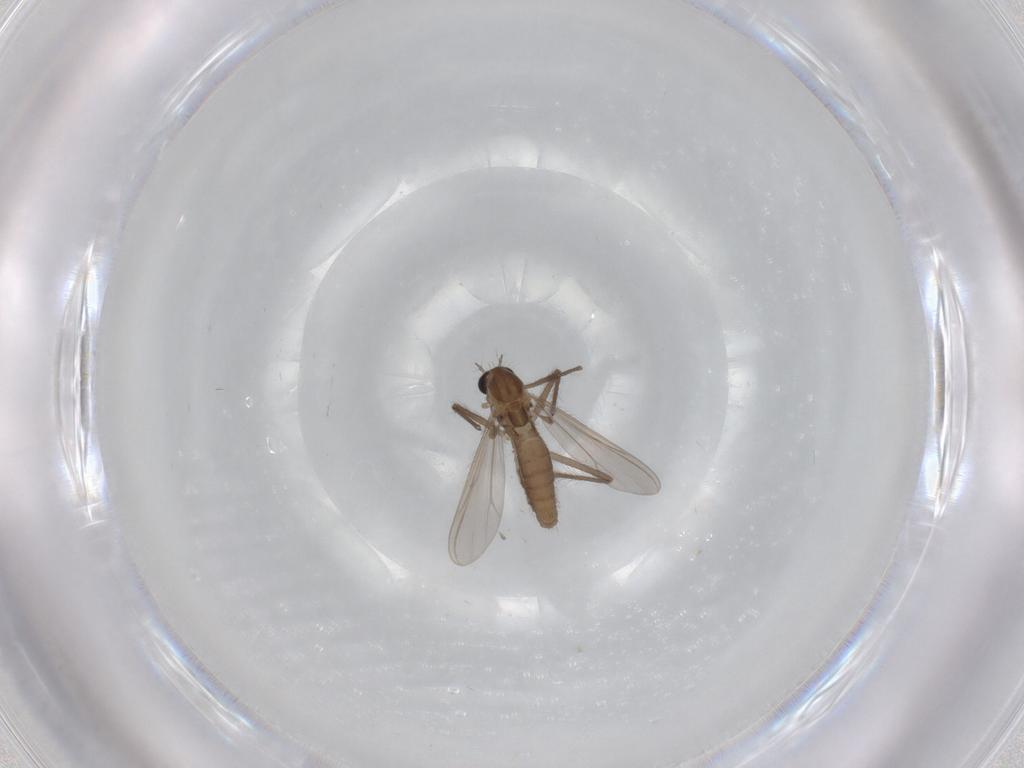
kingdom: Animalia
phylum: Arthropoda
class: Insecta
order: Diptera
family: Chironomidae
